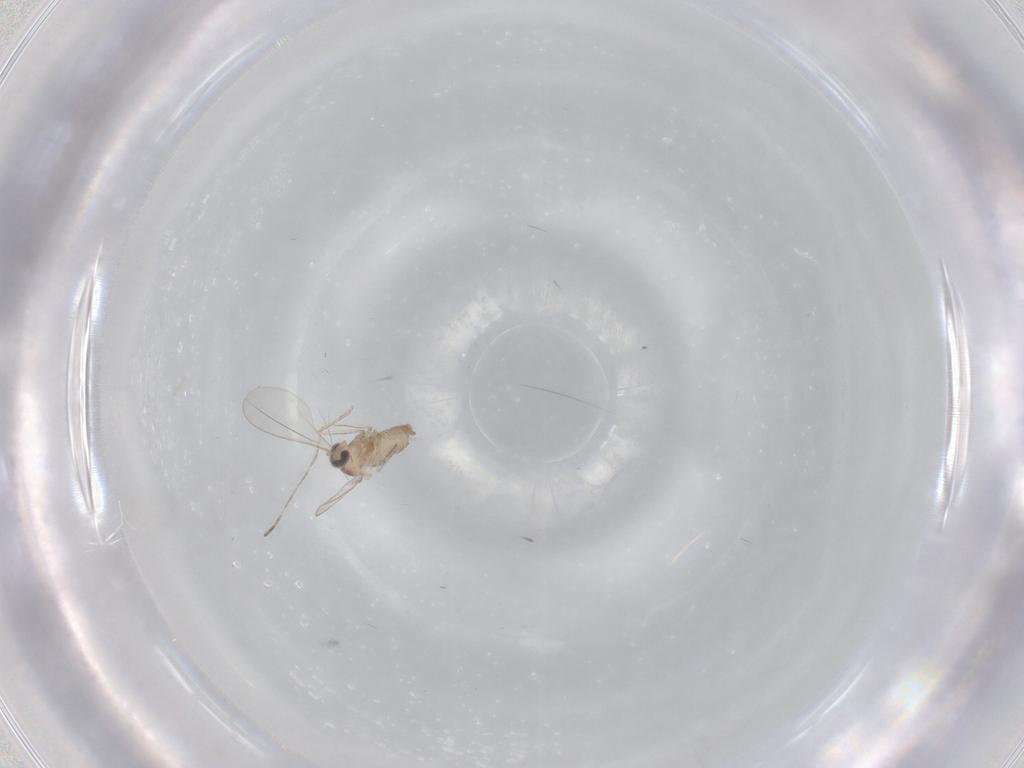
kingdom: Animalia
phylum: Arthropoda
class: Insecta
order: Diptera
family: Cecidomyiidae
